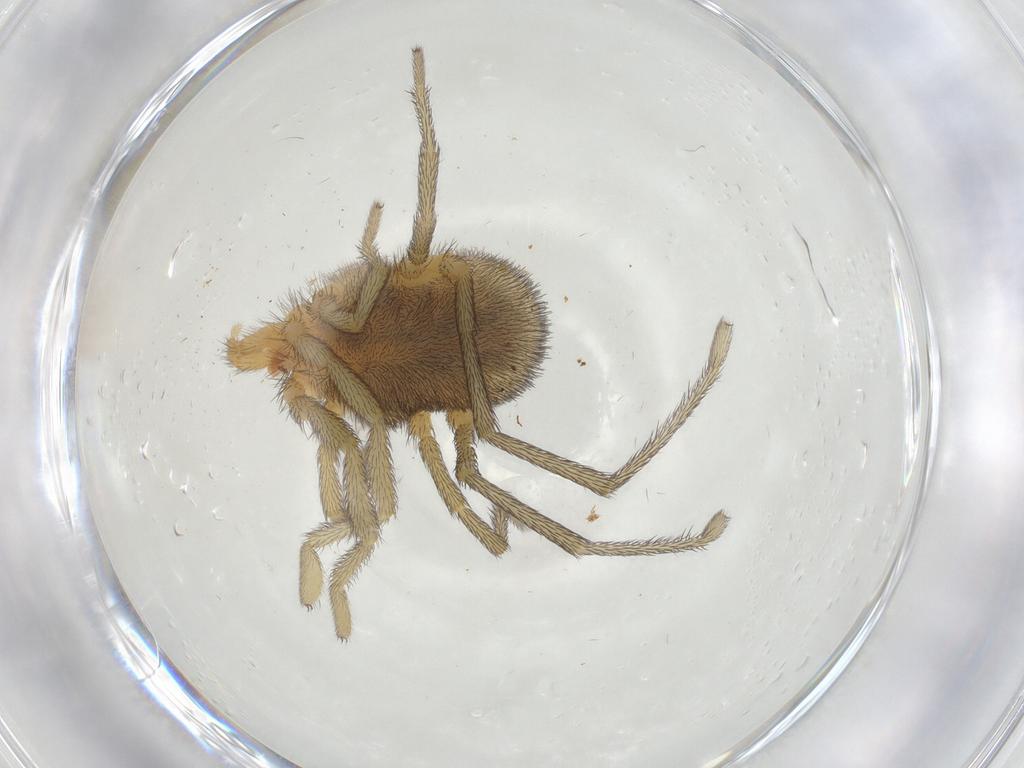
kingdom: Animalia
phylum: Arthropoda
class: Arachnida
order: Trombidiformes
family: Erythraeidae
